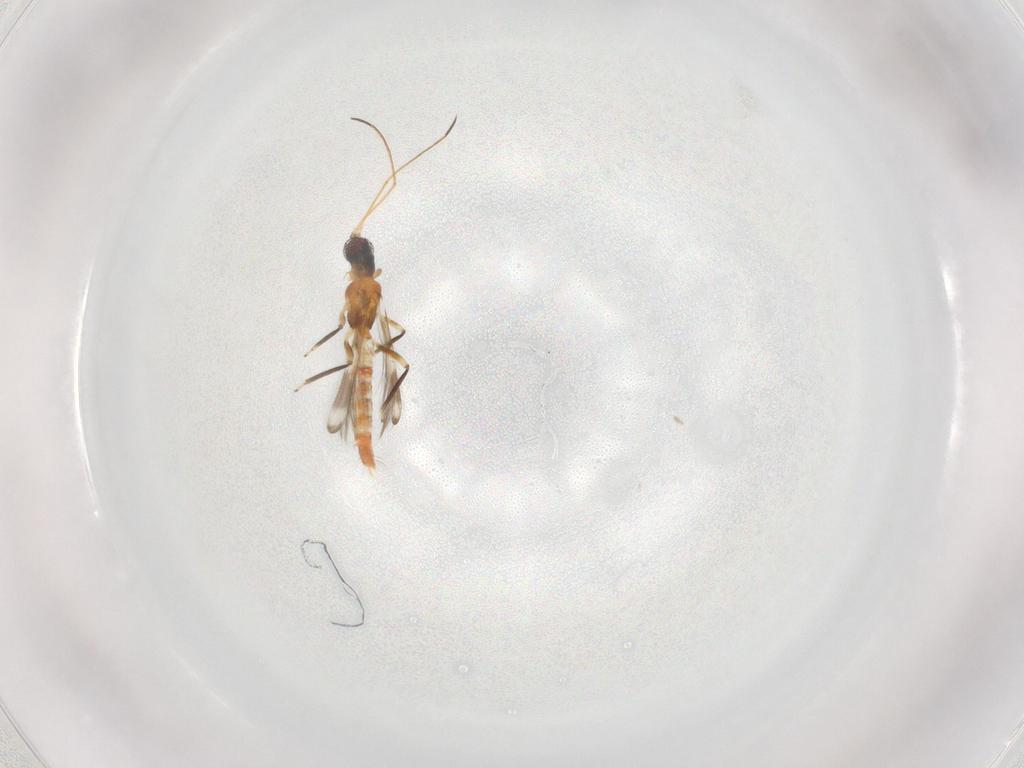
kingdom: Animalia
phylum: Arthropoda
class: Insecta
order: Thysanoptera
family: Aeolothripidae
